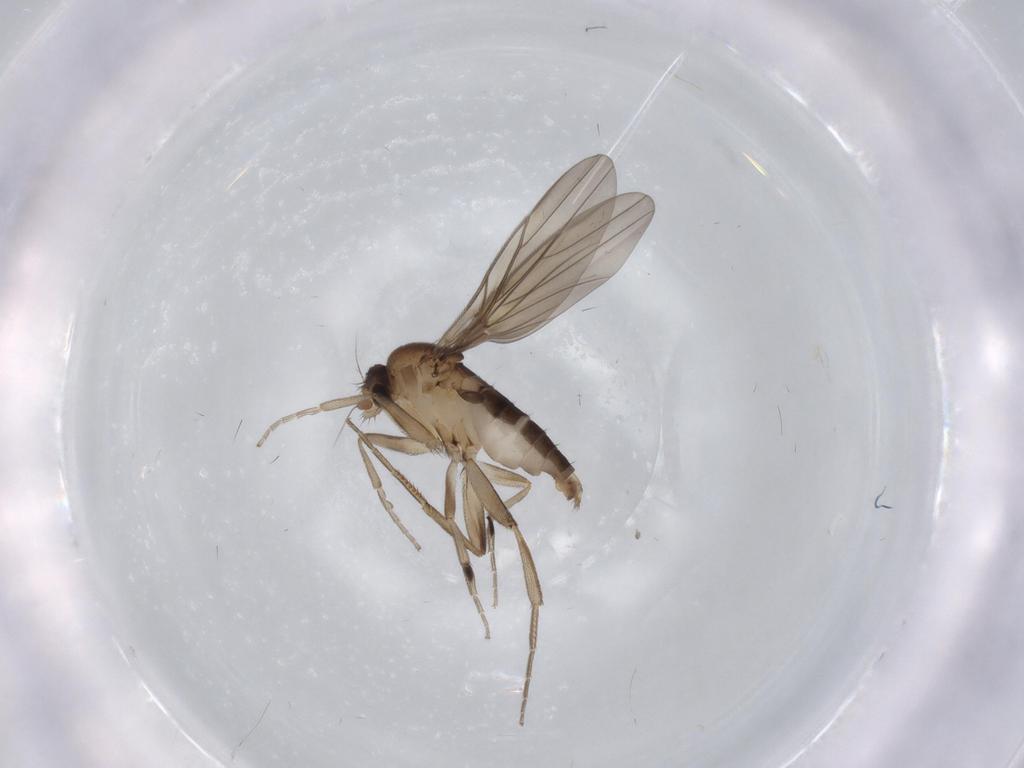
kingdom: Animalia
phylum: Arthropoda
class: Insecta
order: Diptera
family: Phoridae
